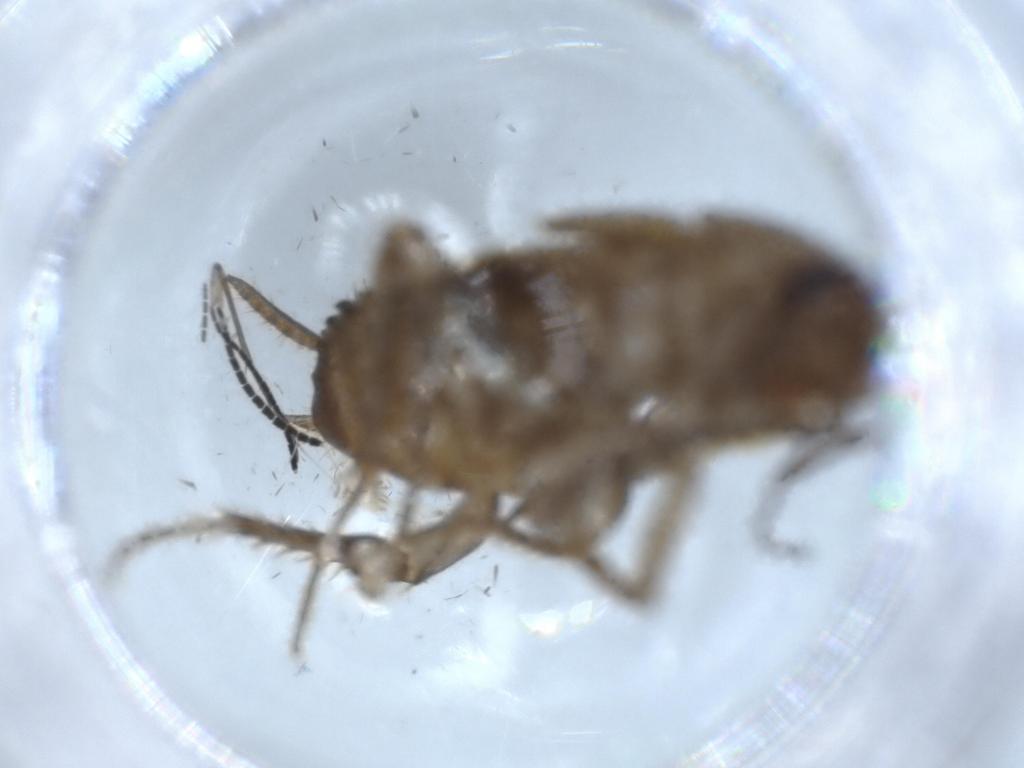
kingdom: Animalia
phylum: Arthropoda
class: Insecta
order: Blattodea
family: Ectobiidae
